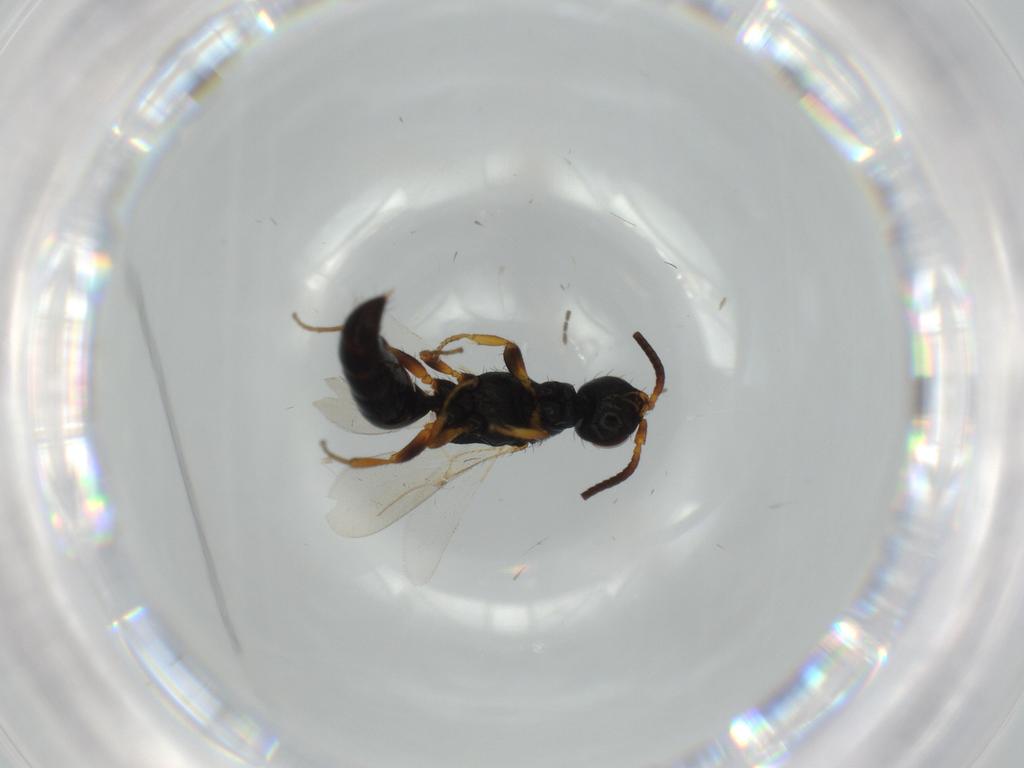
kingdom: Animalia
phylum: Arthropoda
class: Insecta
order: Hymenoptera
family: Bethylidae
